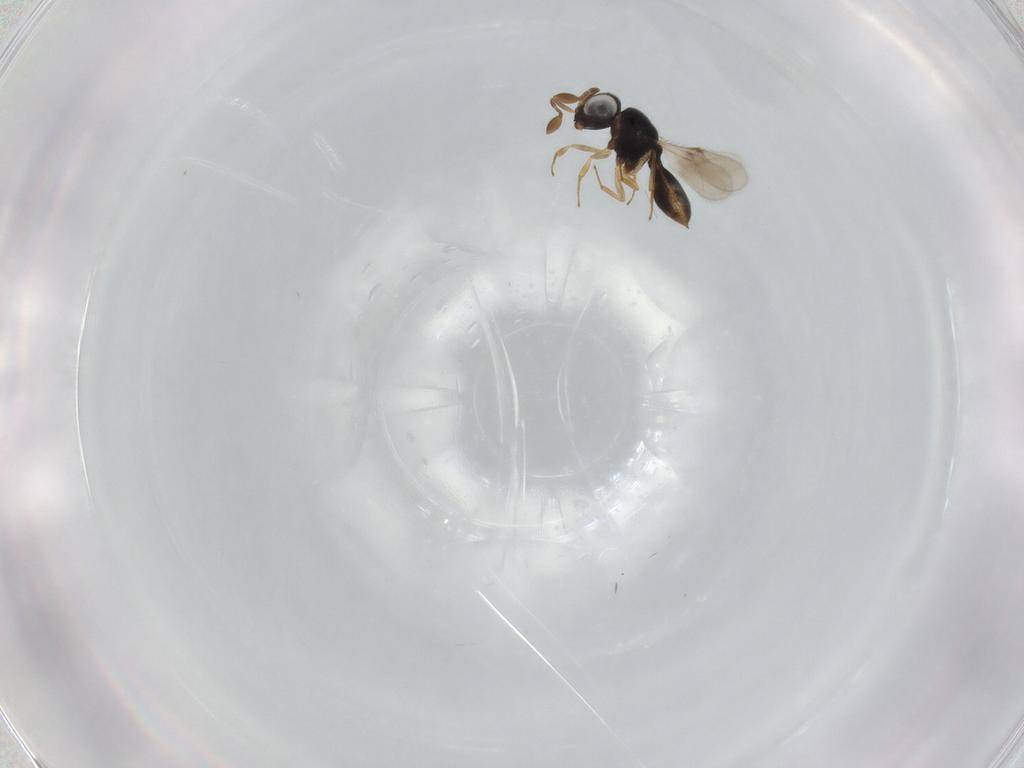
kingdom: Animalia
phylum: Arthropoda
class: Insecta
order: Hymenoptera
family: Scelionidae
